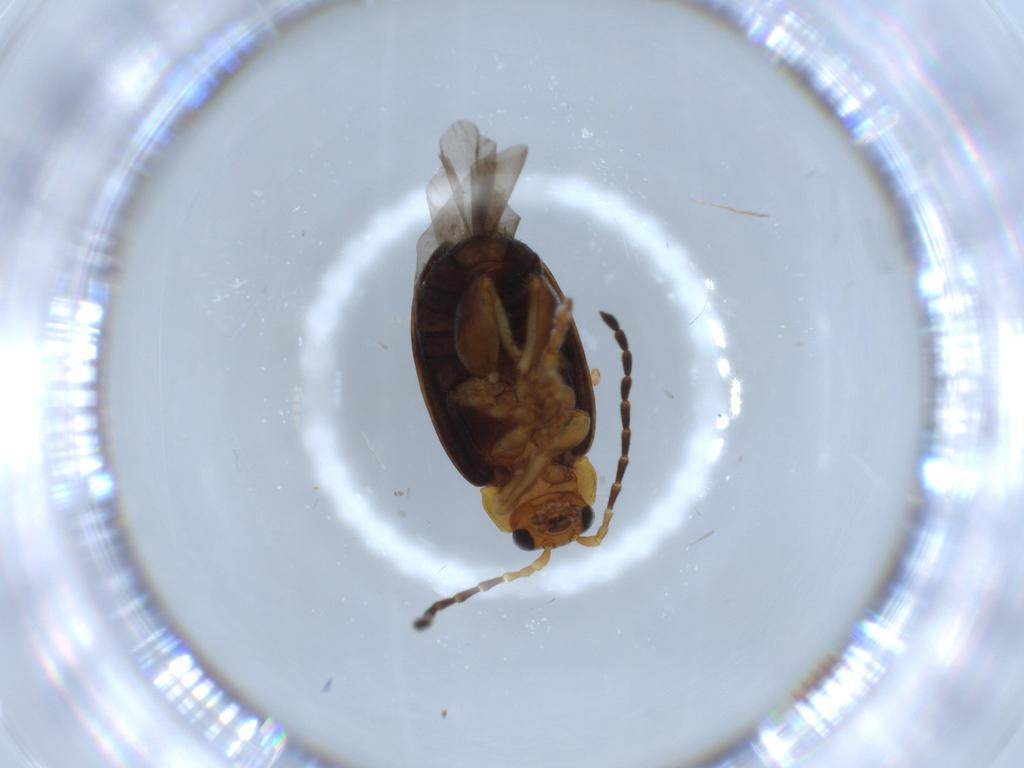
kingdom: Animalia
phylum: Arthropoda
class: Insecta
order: Coleoptera
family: Chrysomelidae
